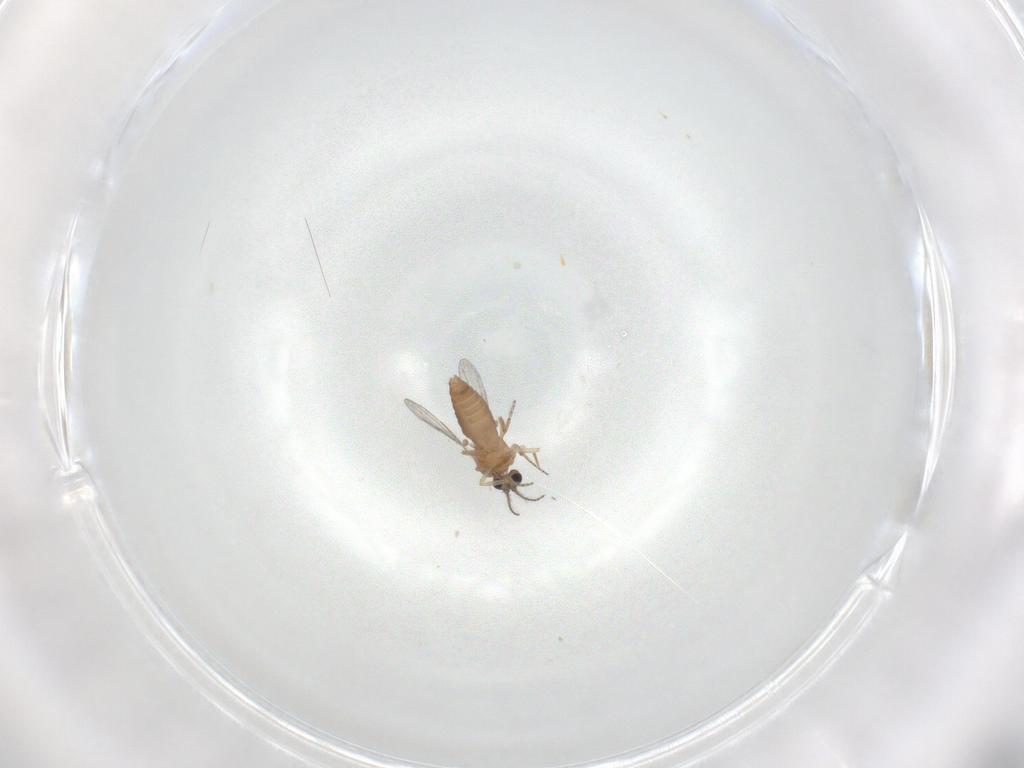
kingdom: Animalia
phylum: Arthropoda
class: Insecta
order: Diptera
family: Ceratopogonidae
